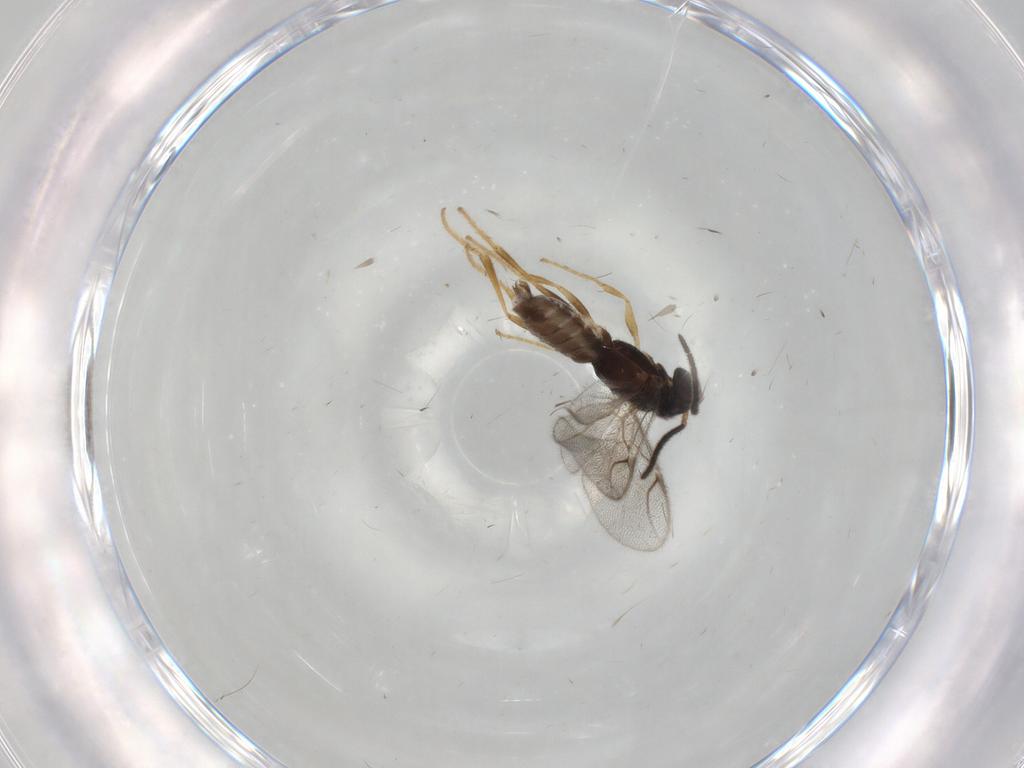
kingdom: Animalia
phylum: Arthropoda
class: Insecta
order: Hymenoptera
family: Dryinidae
